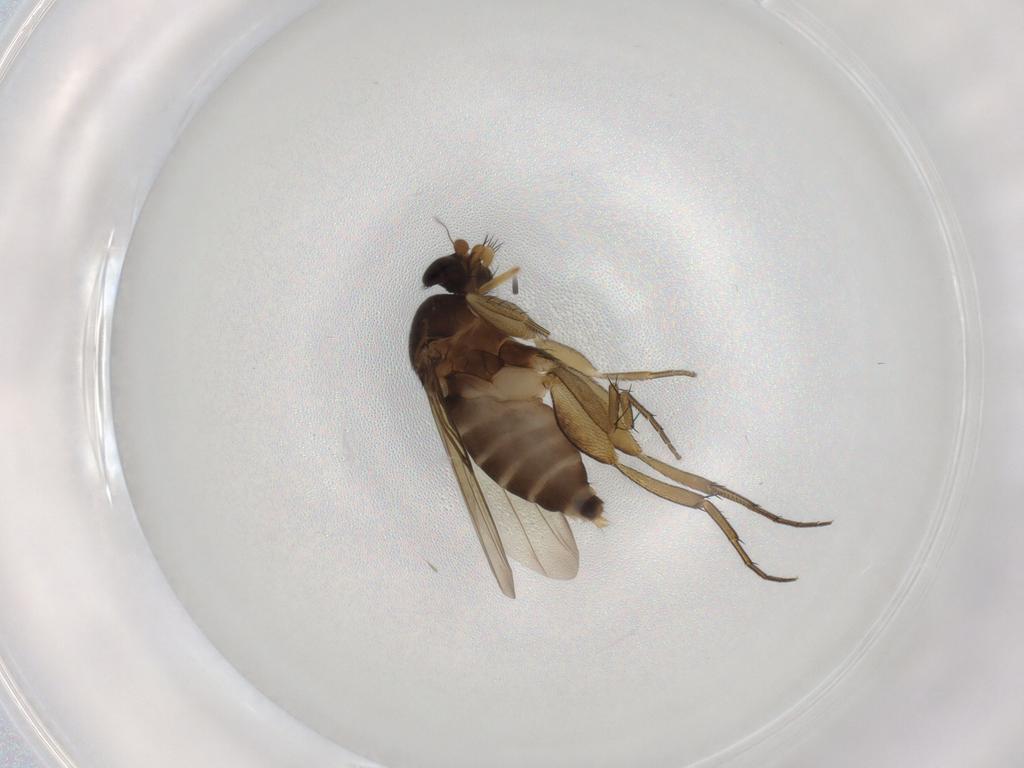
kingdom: Animalia
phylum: Arthropoda
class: Insecta
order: Diptera
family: Phoridae
